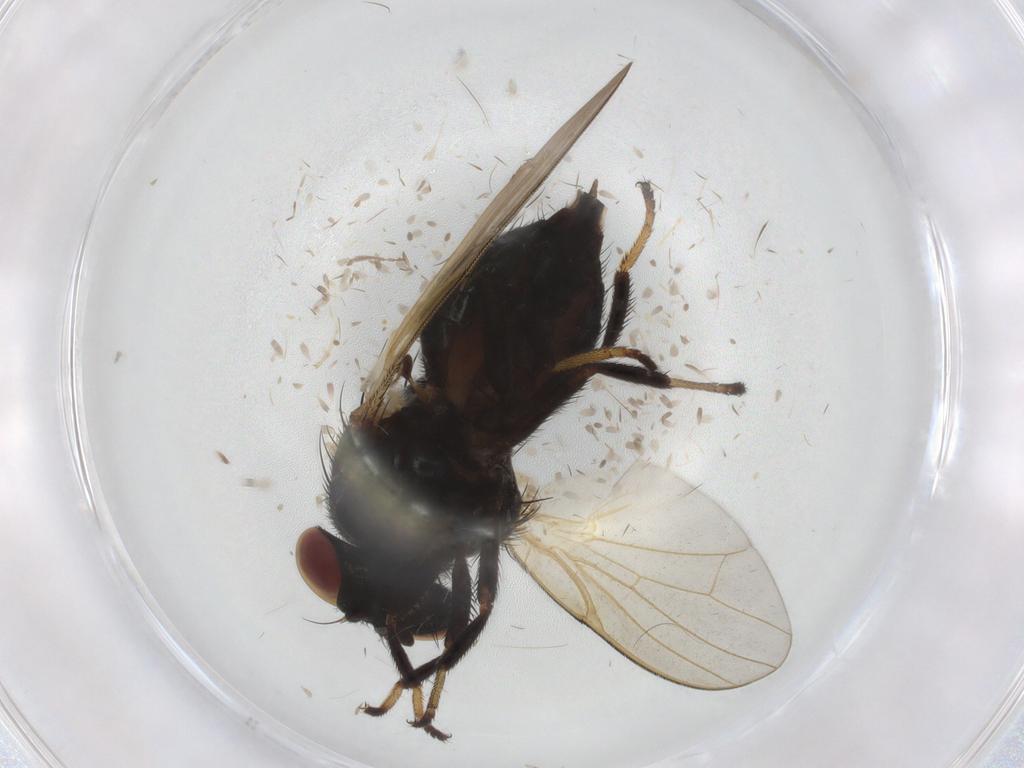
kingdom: Animalia
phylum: Arthropoda
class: Insecta
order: Diptera
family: Lonchaeidae
